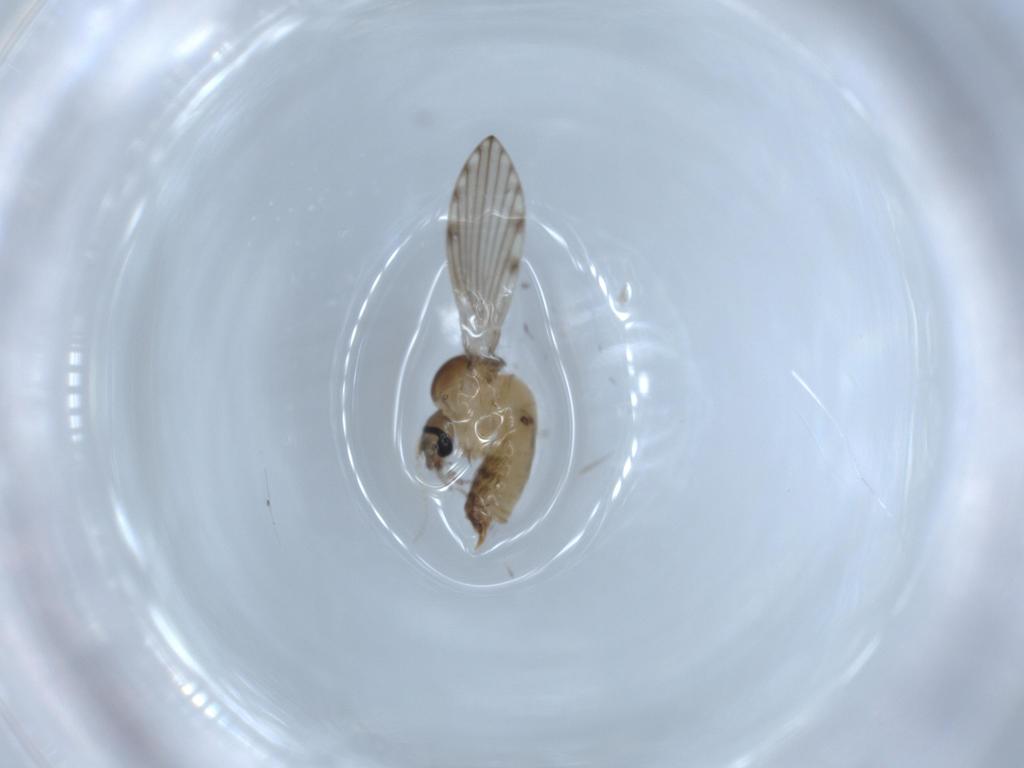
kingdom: Animalia
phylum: Arthropoda
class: Insecta
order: Diptera
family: Psychodidae
